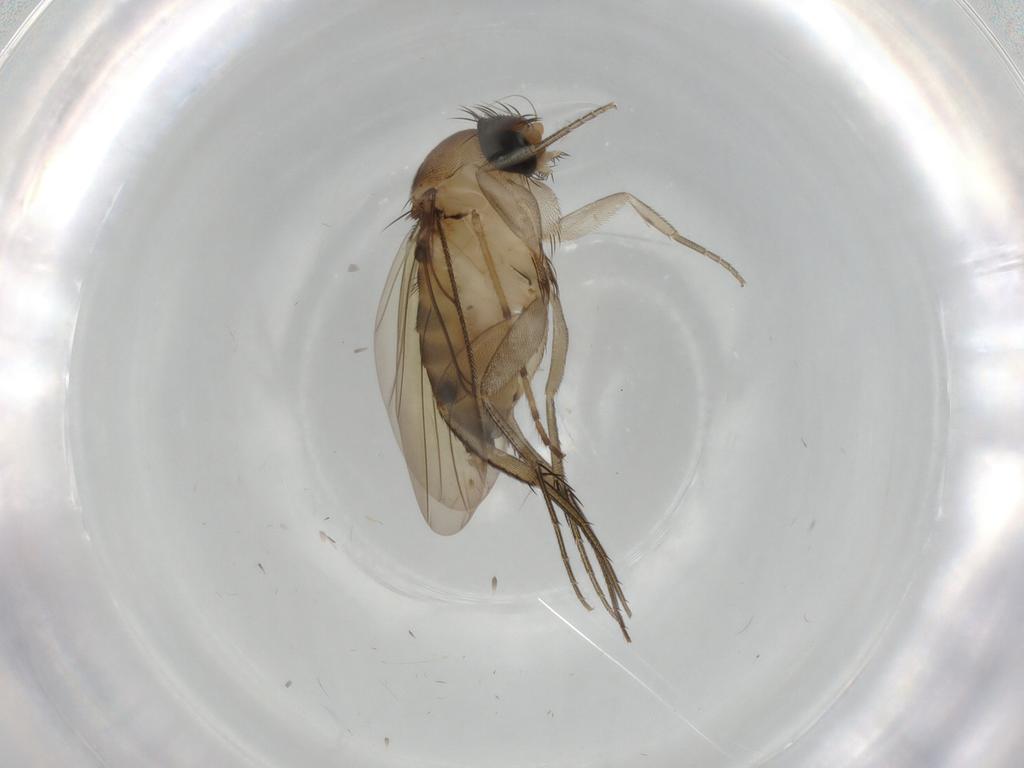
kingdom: Animalia
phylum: Arthropoda
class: Insecta
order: Diptera
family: Phoridae
